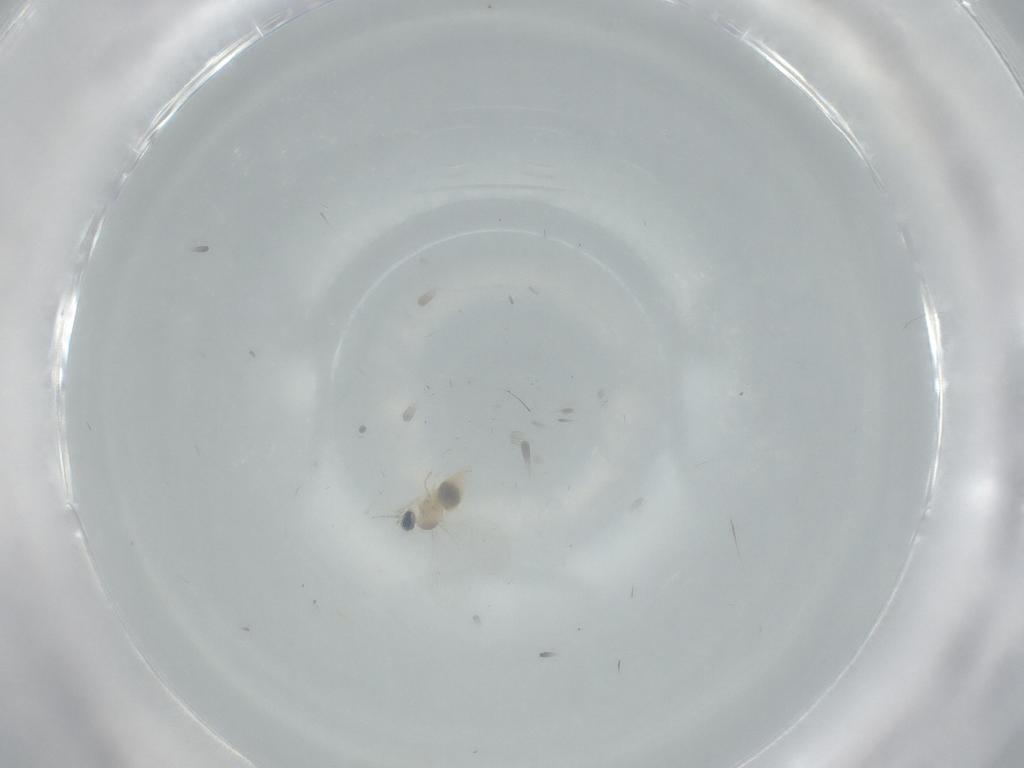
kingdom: Animalia
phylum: Arthropoda
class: Insecta
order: Diptera
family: Cecidomyiidae
